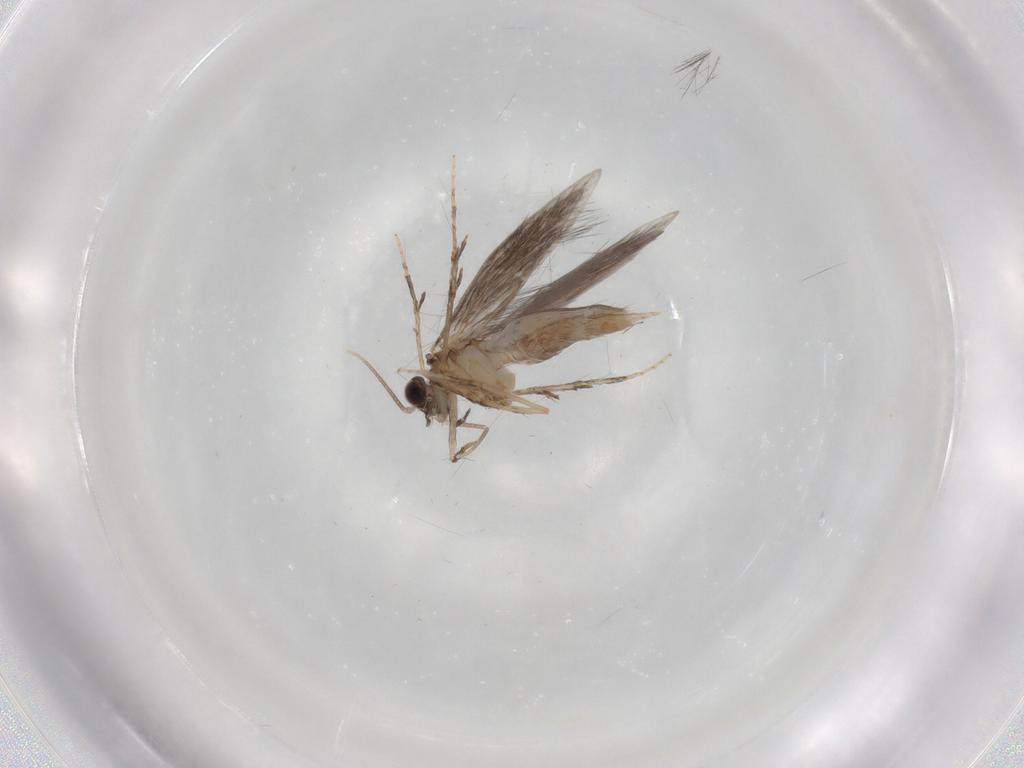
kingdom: Animalia
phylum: Arthropoda
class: Insecta
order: Trichoptera
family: Hydroptilidae
